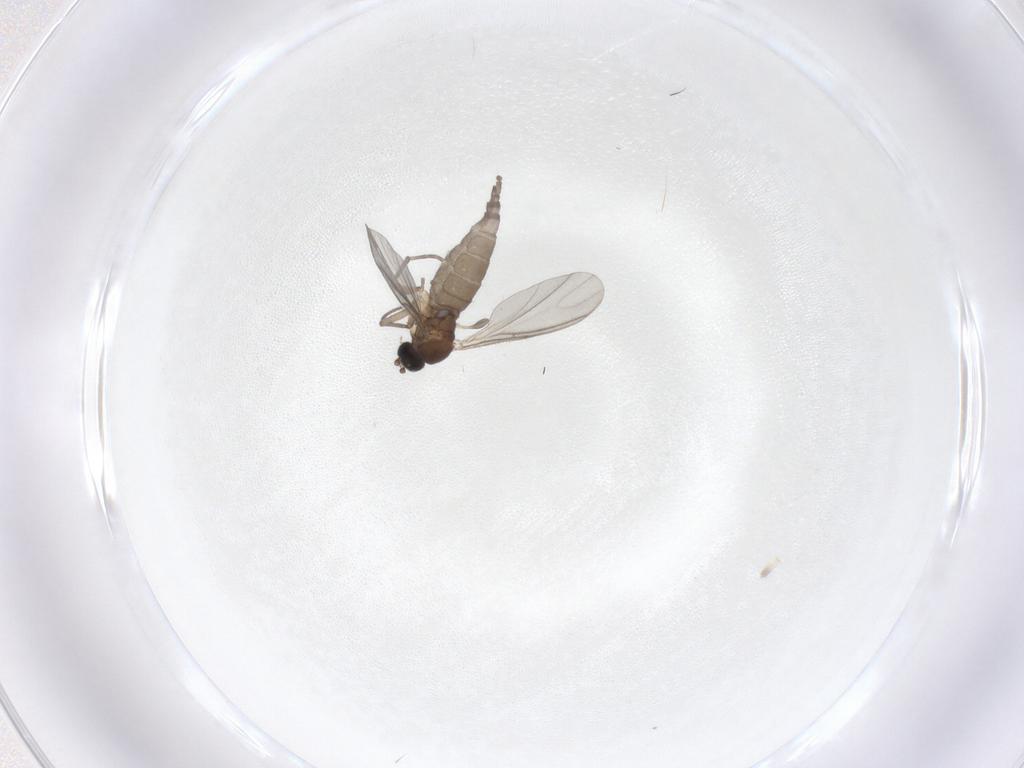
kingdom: Animalia
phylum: Arthropoda
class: Insecta
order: Diptera
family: Sciaridae
